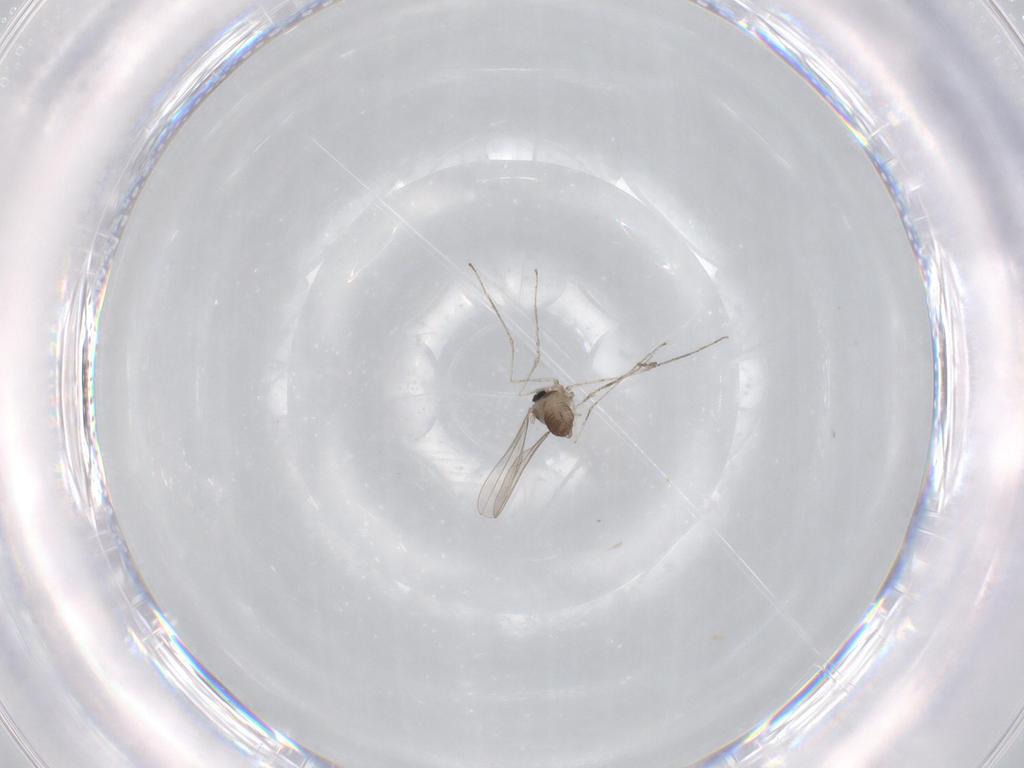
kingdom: Animalia
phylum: Arthropoda
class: Insecta
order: Diptera
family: Cecidomyiidae
